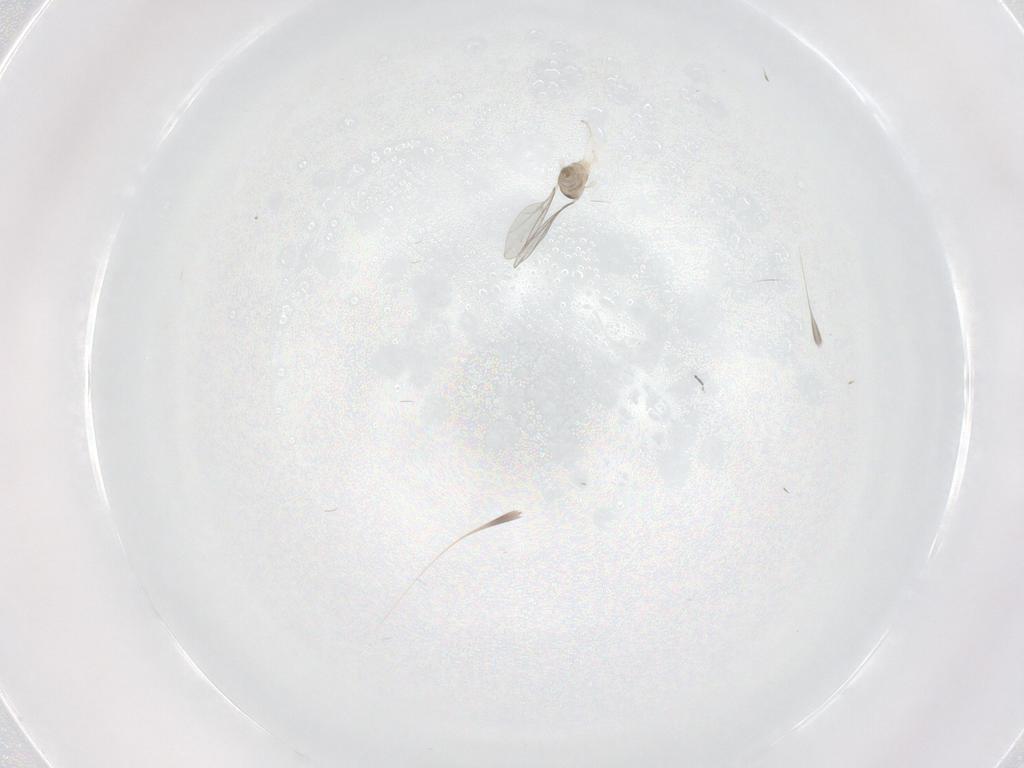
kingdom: Animalia
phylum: Arthropoda
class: Insecta
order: Diptera
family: Cecidomyiidae
